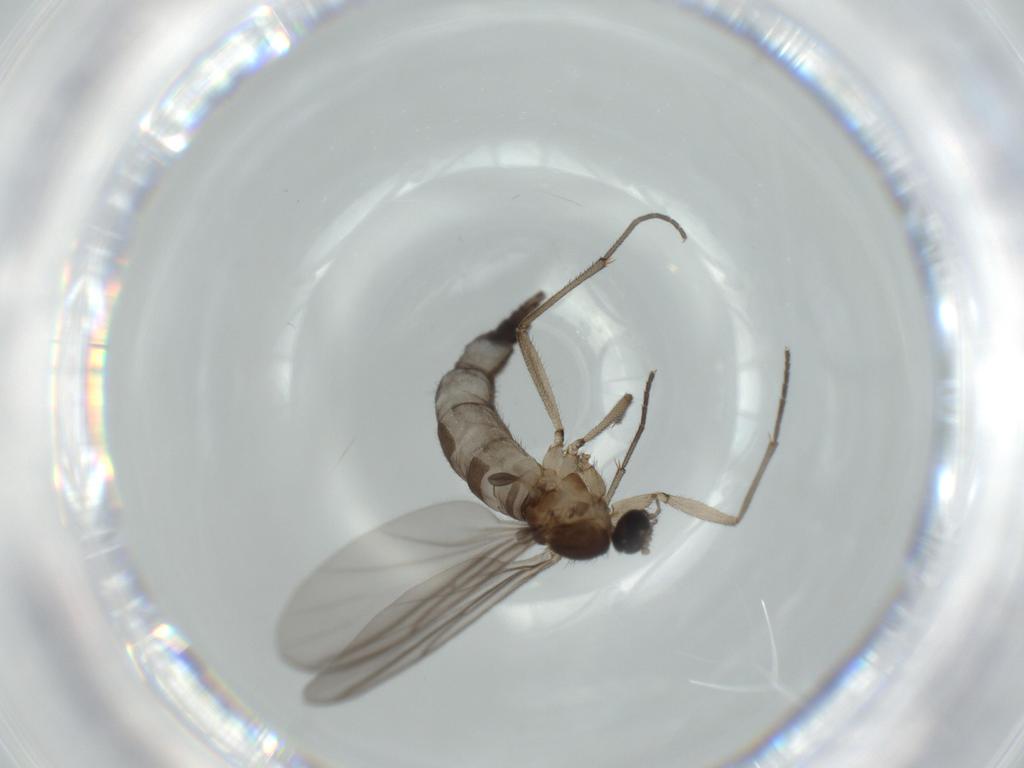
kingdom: Animalia
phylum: Arthropoda
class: Insecta
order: Diptera
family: Sciaridae
